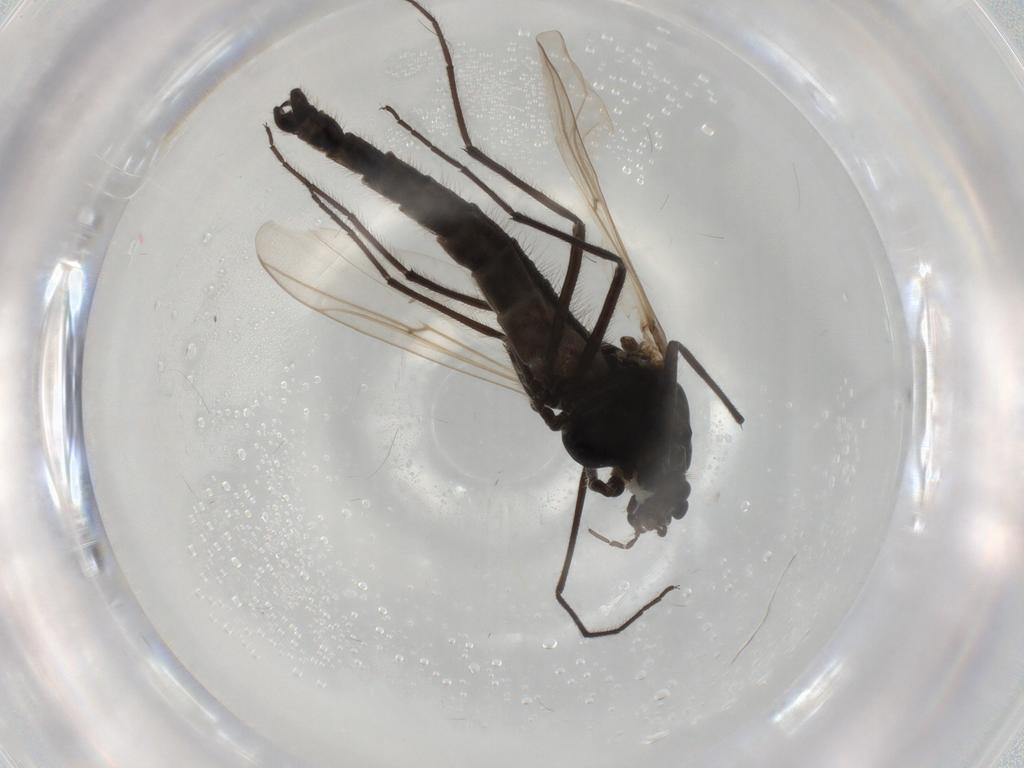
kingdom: Animalia
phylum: Arthropoda
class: Insecta
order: Diptera
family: Chironomidae
